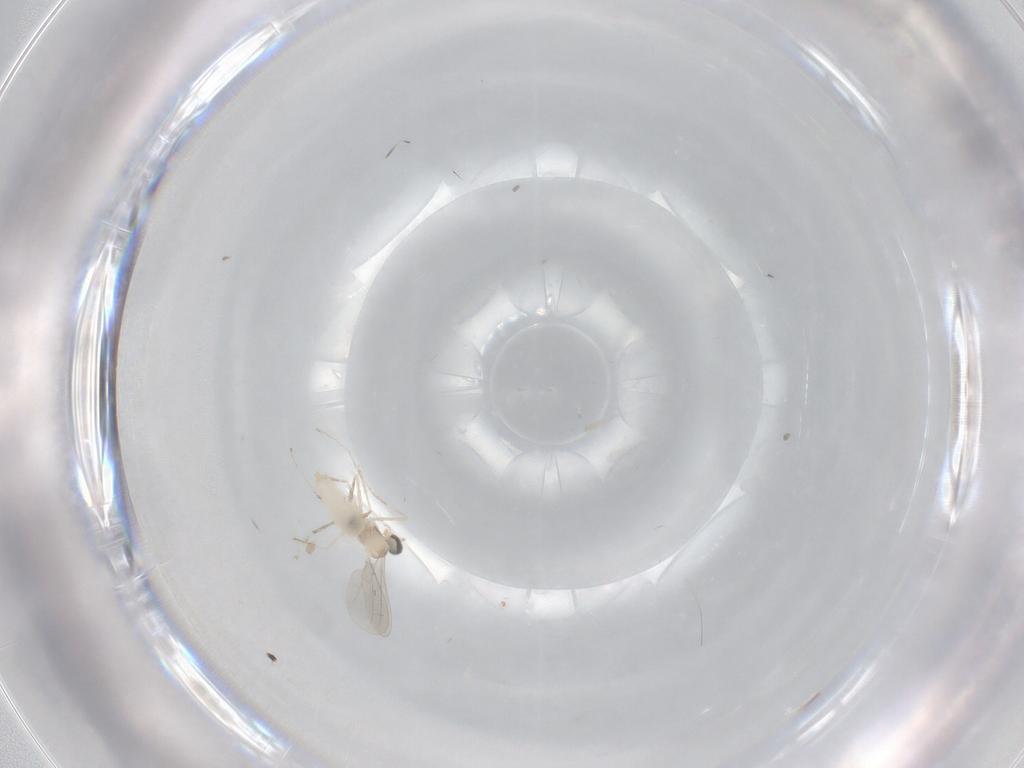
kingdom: Animalia
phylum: Arthropoda
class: Insecta
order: Diptera
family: Cecidomyiidae
